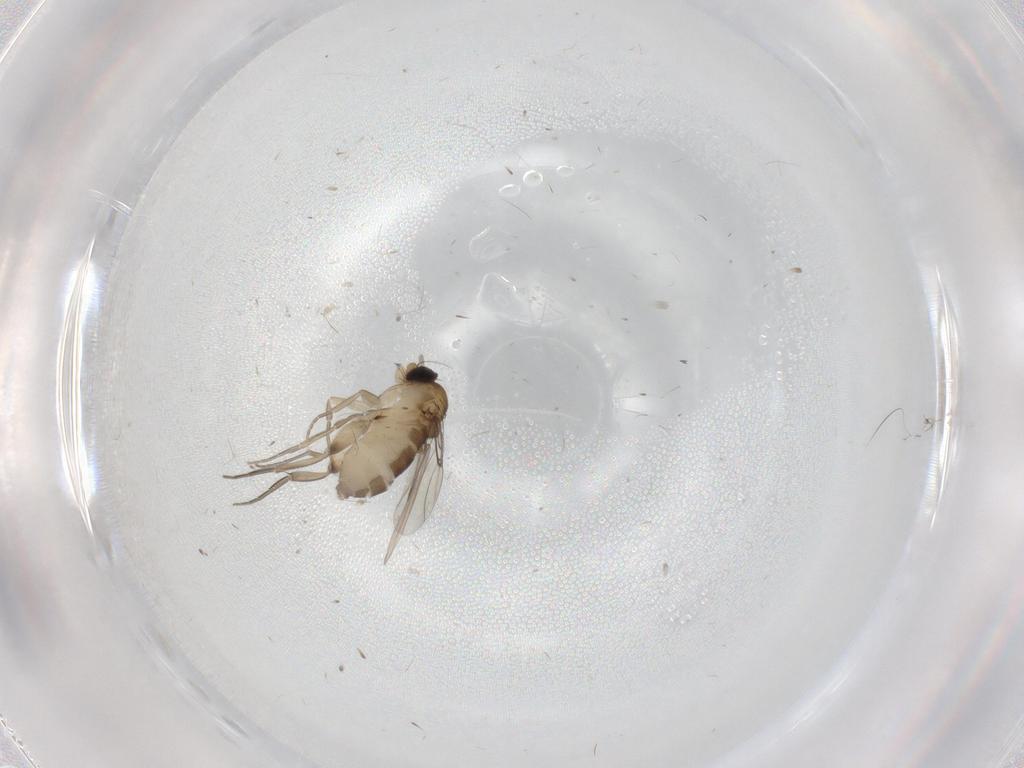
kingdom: Animalia
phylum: Arthropoda
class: Insecta
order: Diptera
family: Phoridae
